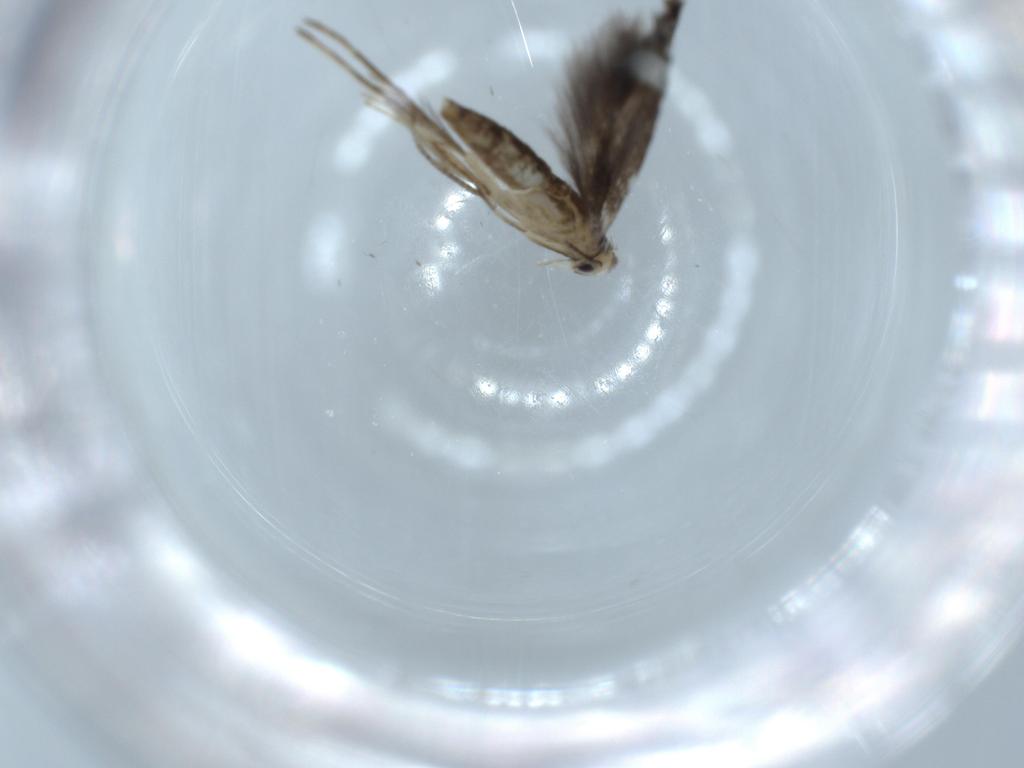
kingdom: Animalia
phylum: Arthropoda
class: Insecta
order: Lepidoptera
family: Gracillariidae
